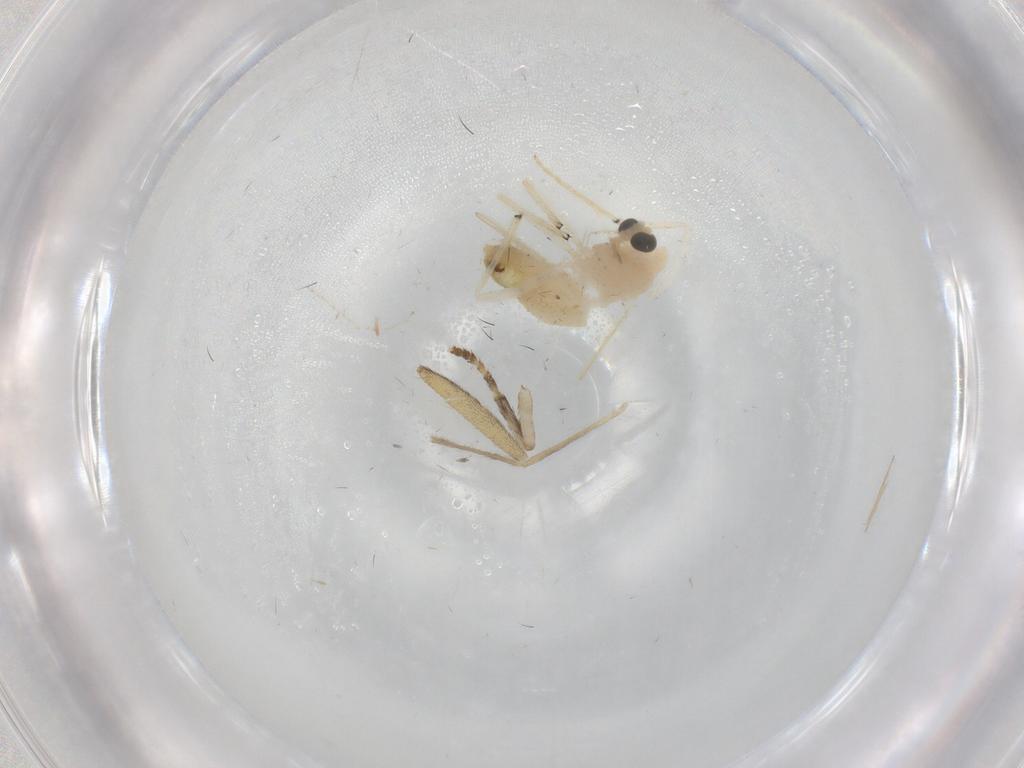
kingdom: Animalia
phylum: Arthropoda
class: Insecta
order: Diptera
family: Psychodidae
